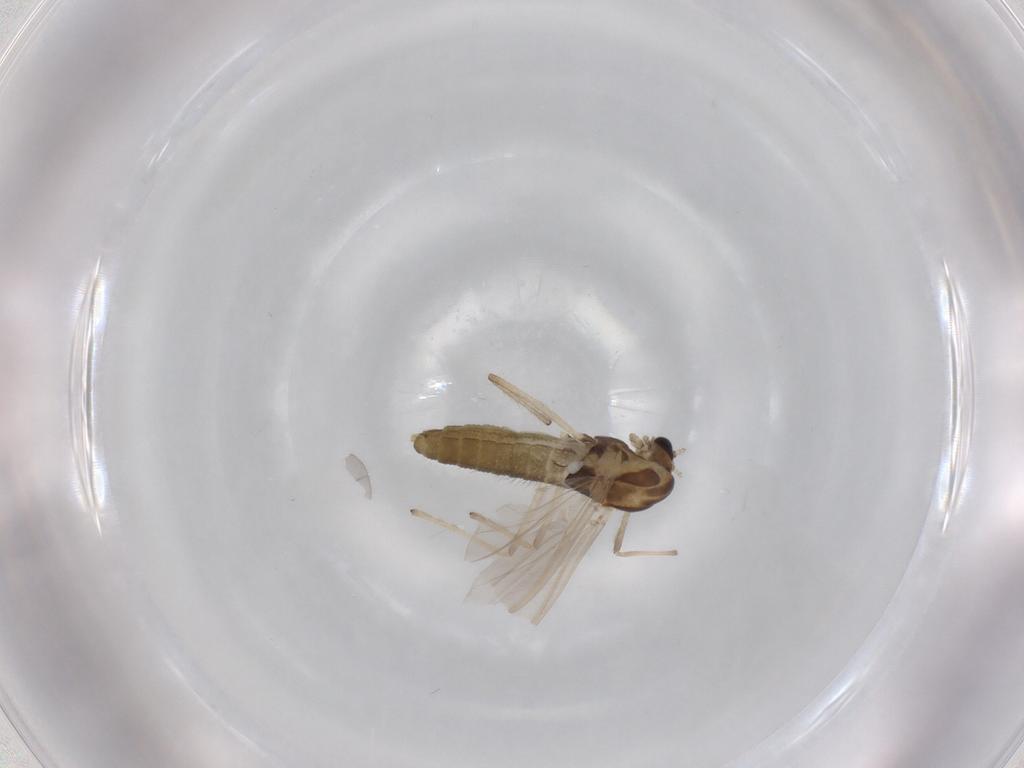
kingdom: Animalia
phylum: Arthropoda
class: Insecta
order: Diptera
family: Chironomidae
